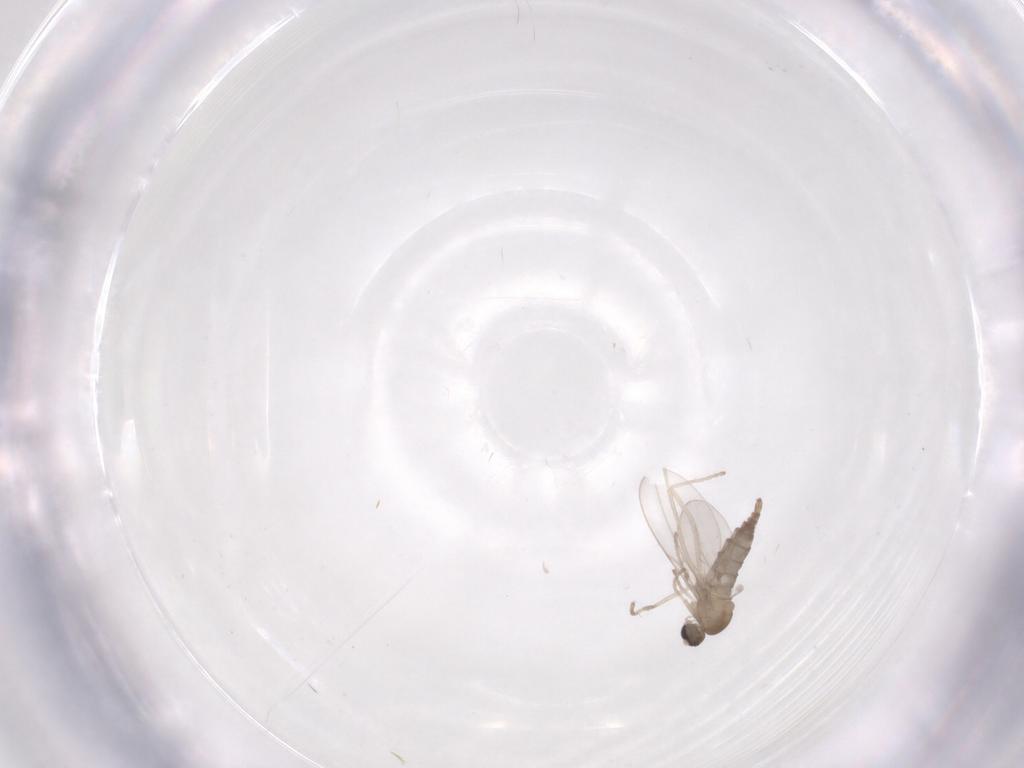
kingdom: Animalia
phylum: Arthropoda
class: Insecta
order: Diptera
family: Cecidomyiidae
